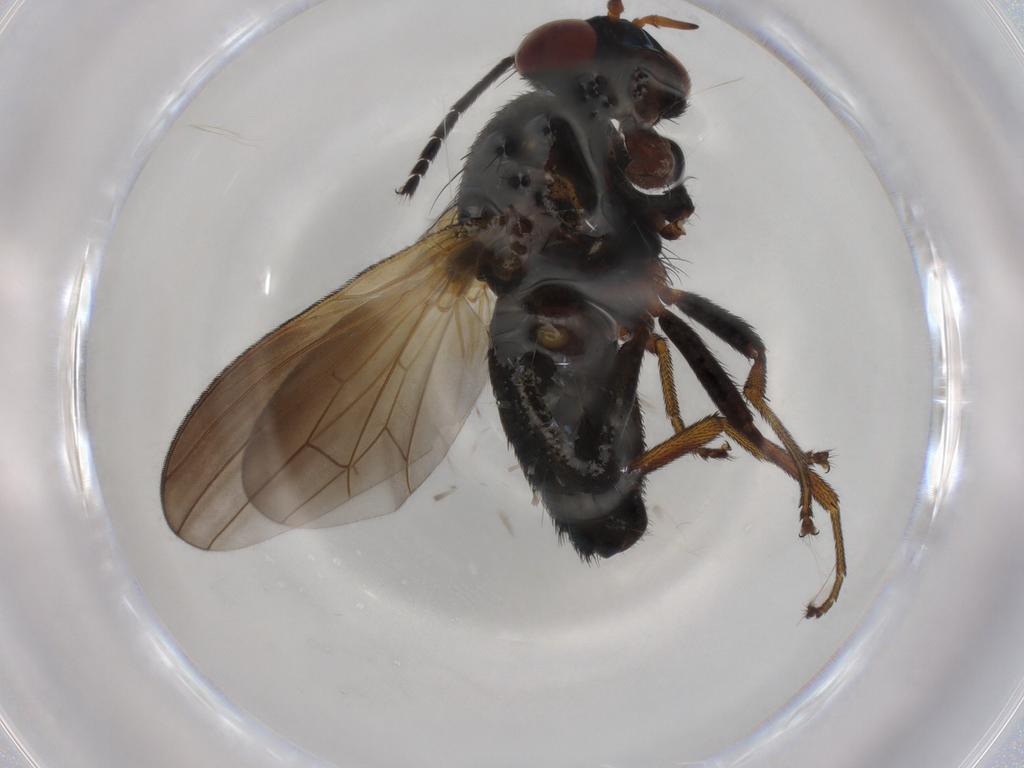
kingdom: Animalia
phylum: Arthropoda
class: Insecta
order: Diptera
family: Lauxaniidae
